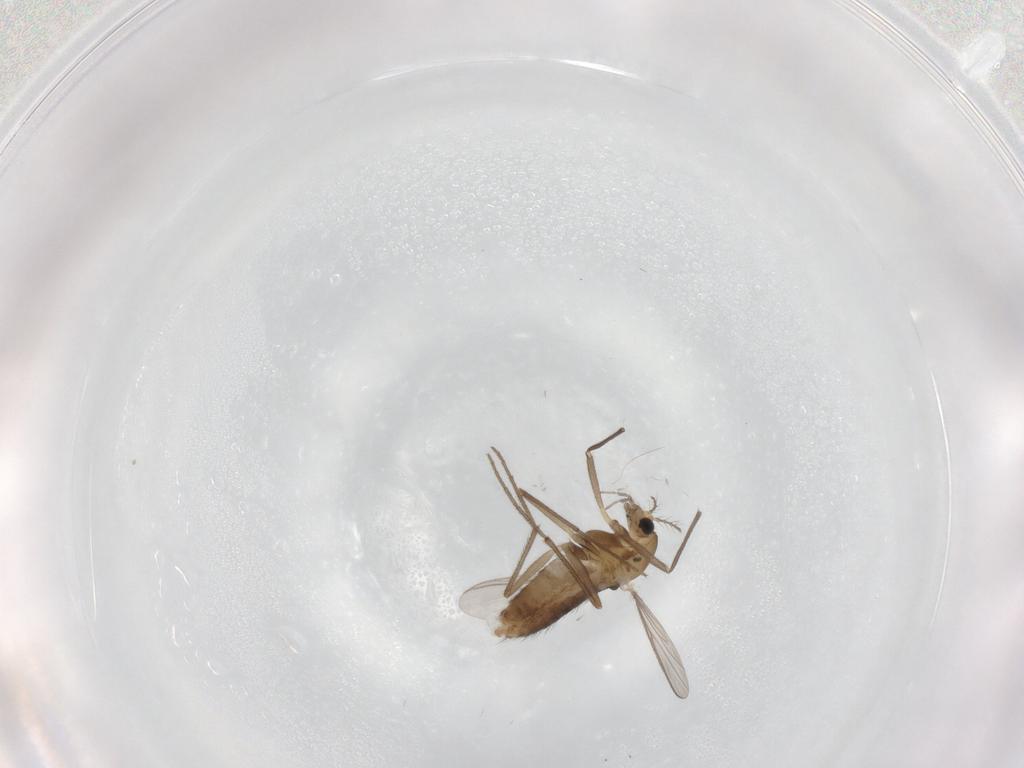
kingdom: Animalia
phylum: Arthropoda
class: Insecta
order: Diptera
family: Chironomidae
